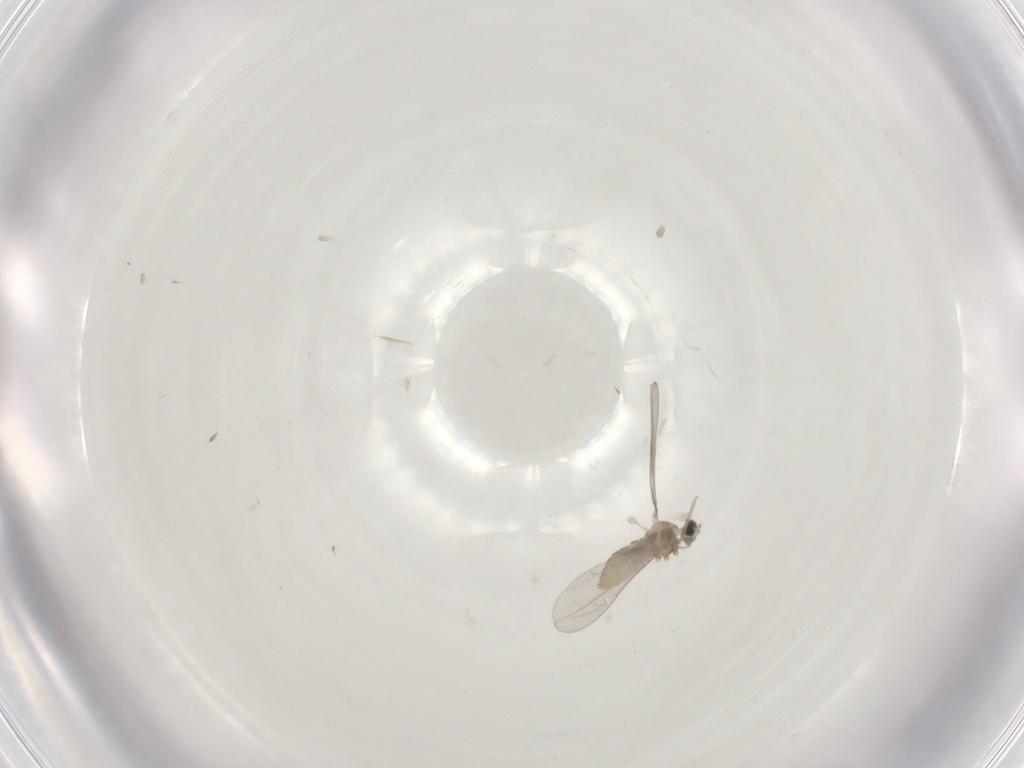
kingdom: Animalia
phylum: Arthropoda
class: Insecta
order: Diptera
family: Cecidomyiidae
